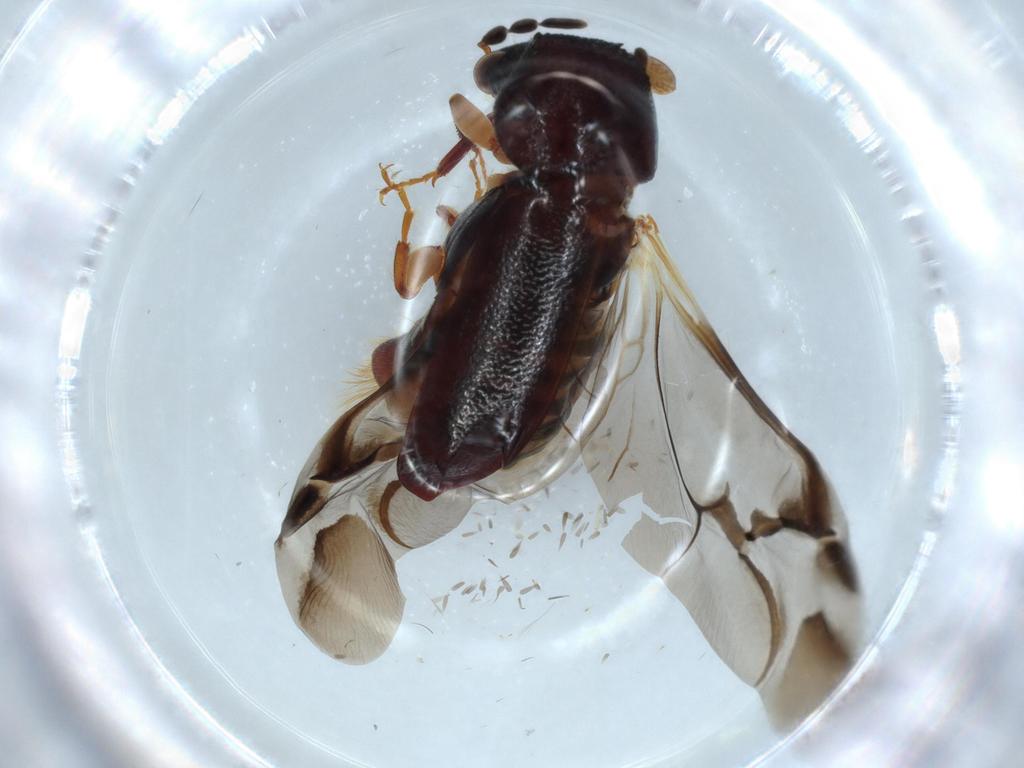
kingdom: Animalia
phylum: Arthropoda
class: Insecta
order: Coleoptera
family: Bostrichidae
